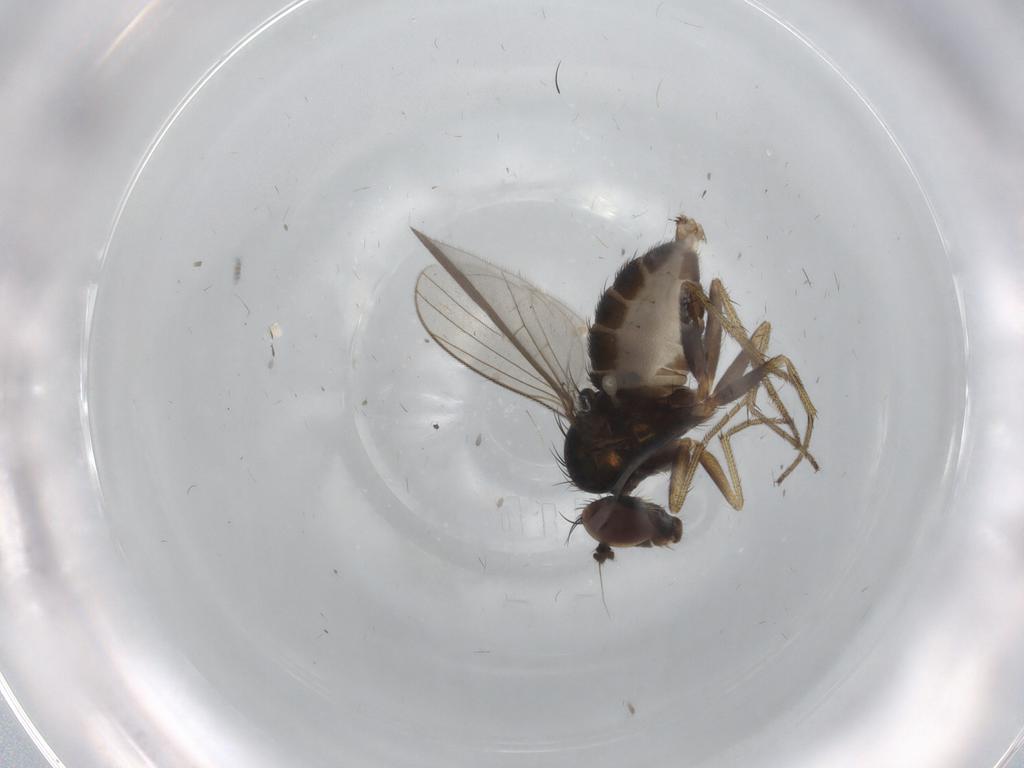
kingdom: Animalia
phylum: Arthropoda
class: Insecta
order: Diptera
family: Dolichopodidae
